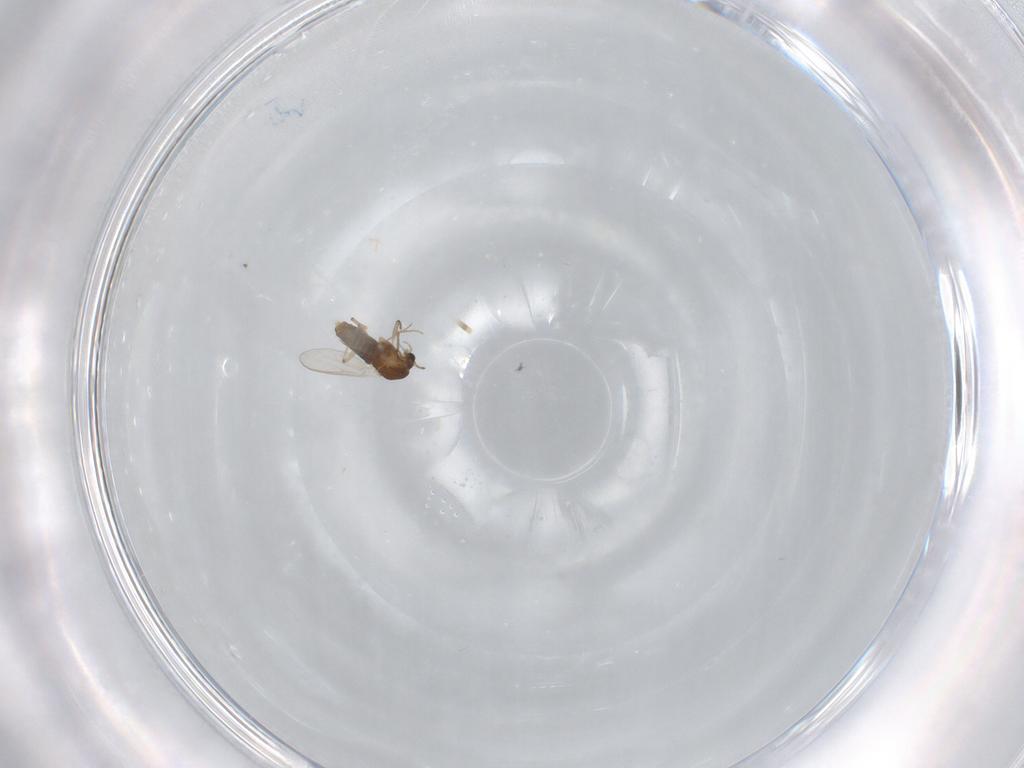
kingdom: Animalia
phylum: Arthropoda
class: Insecta
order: Diptera
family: Chironomidae
